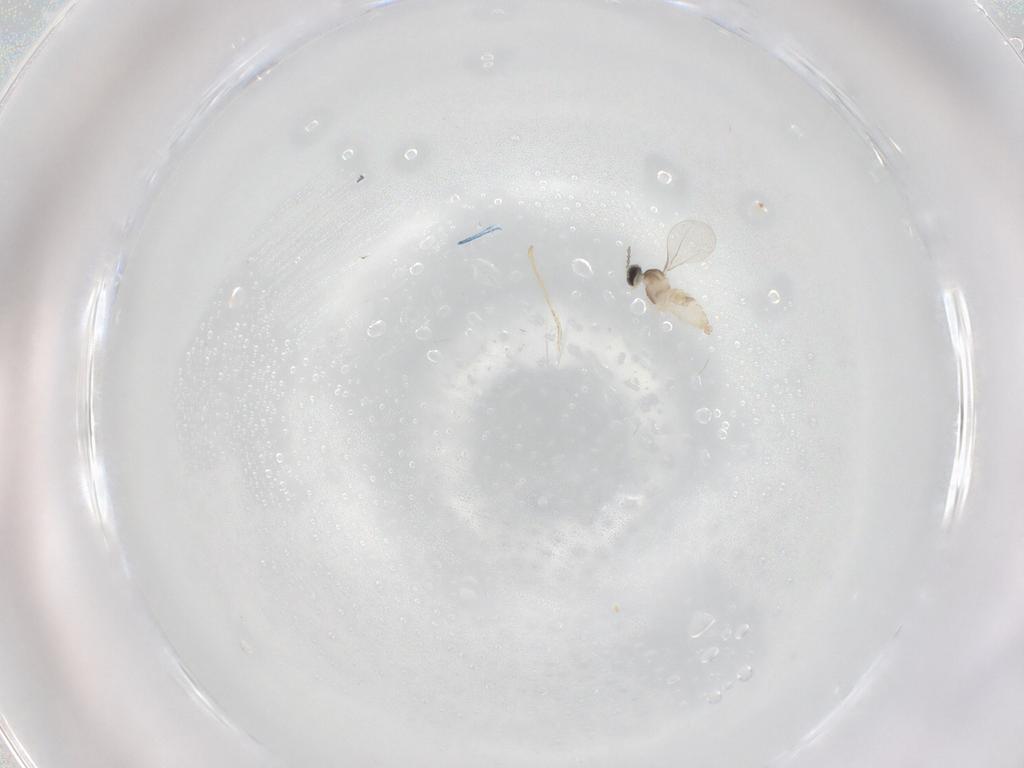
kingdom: Animalia
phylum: Arthropoda
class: Insecta
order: Diptera
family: Cecidomyiidae
